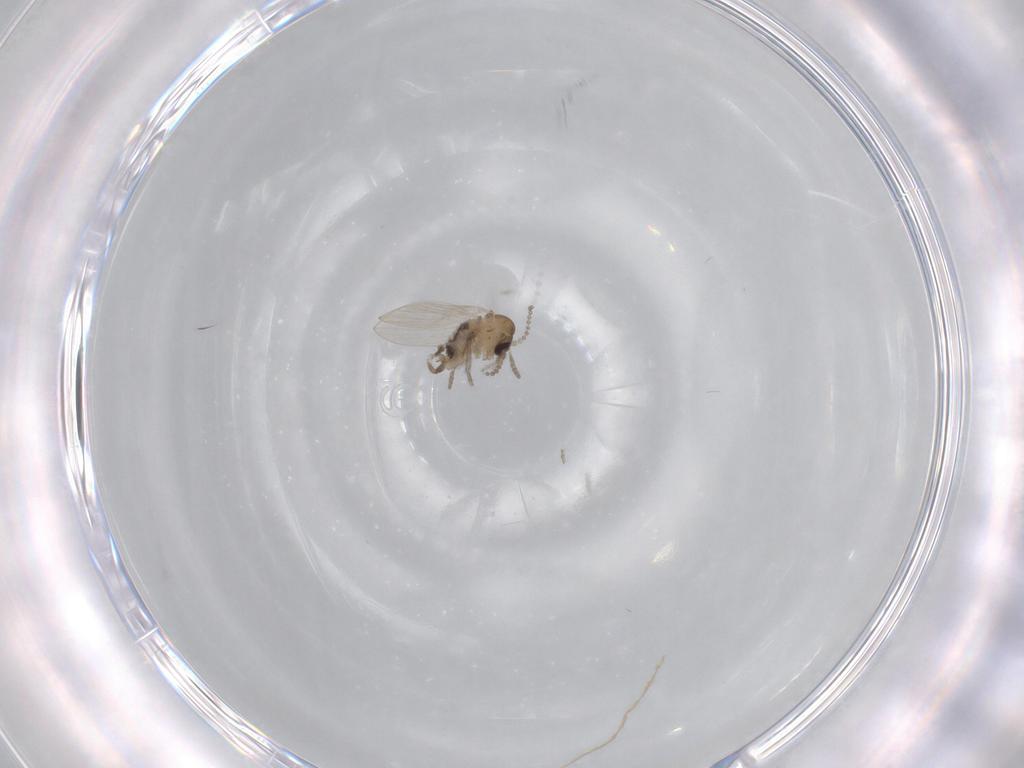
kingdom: Animalia
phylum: Arthropoda
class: Insecta
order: Diptera
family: Psychodidae
